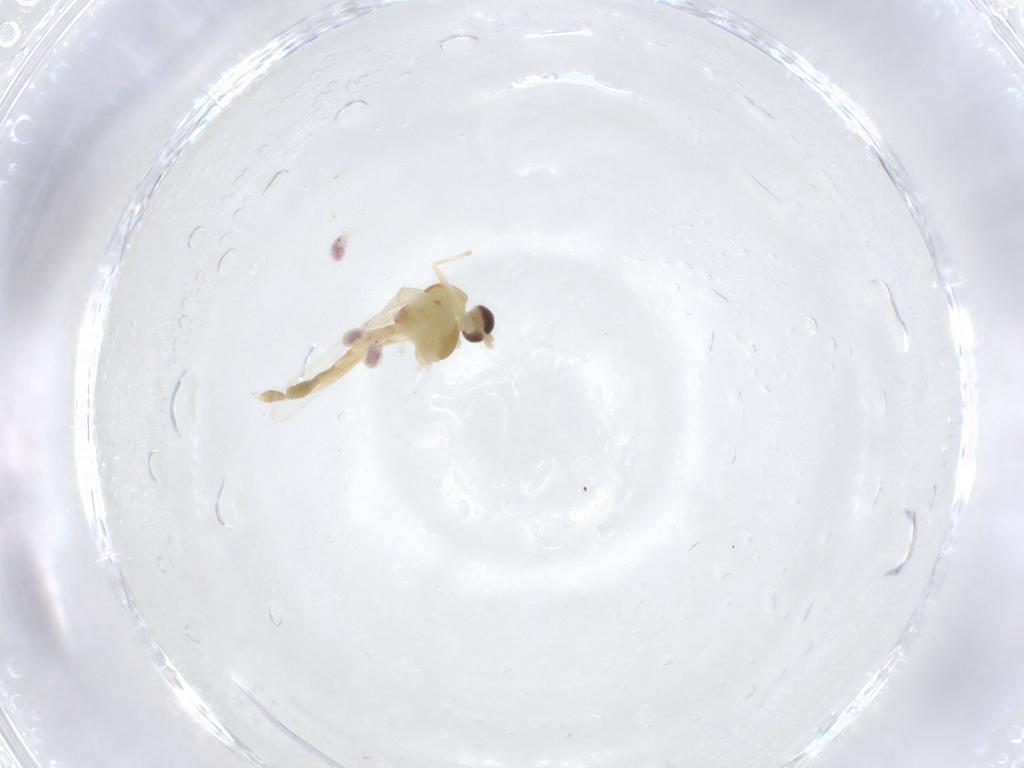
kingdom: Animalia
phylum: Arthropoda
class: Insecta
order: Diptera
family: Chironomidae
